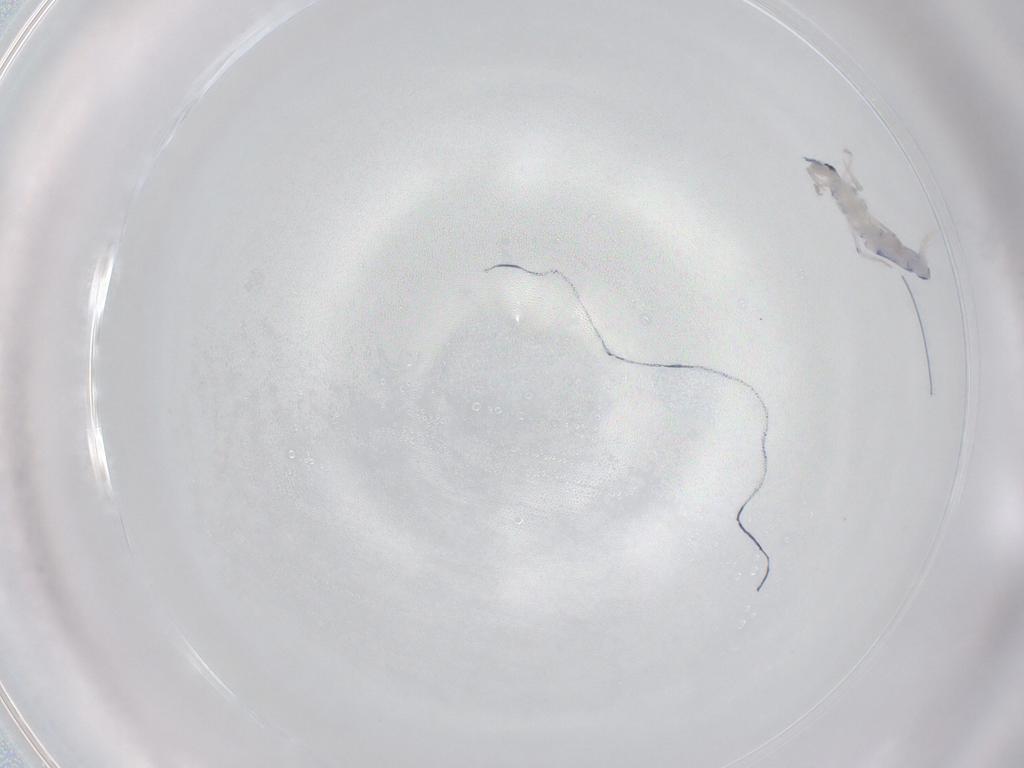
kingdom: Animalia
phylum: Arthropoda
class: Collembola
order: Entomobryomorpha
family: Entomobryidae
